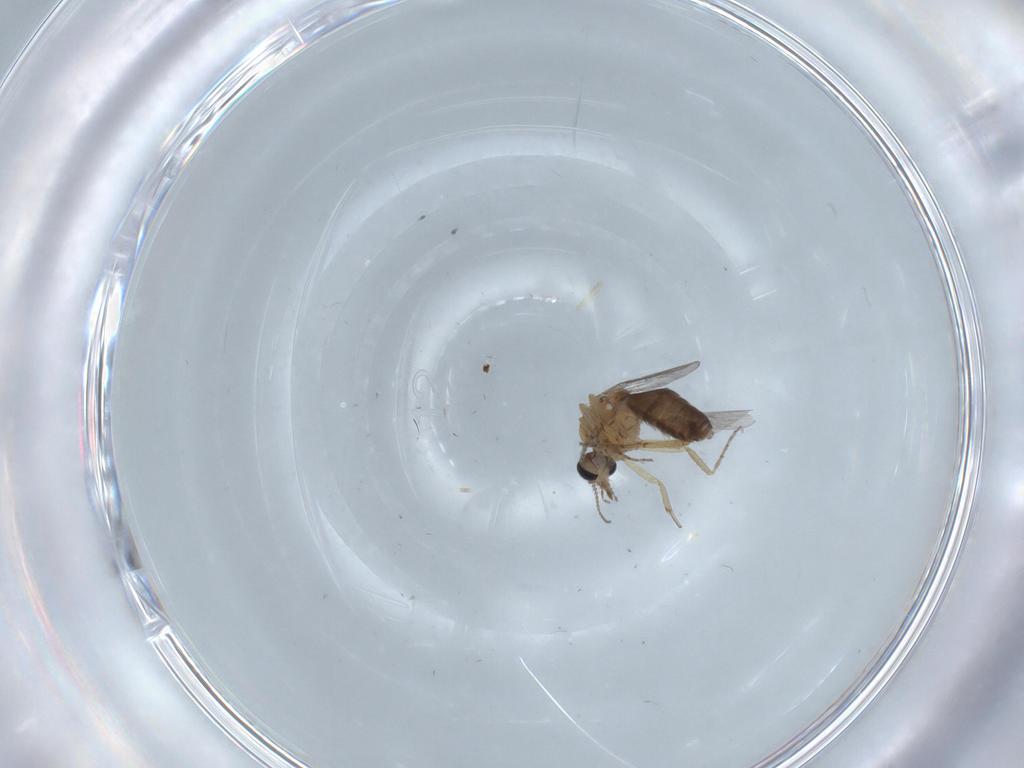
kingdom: Animalia
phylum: Arthropoda
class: Insecta
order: Diptera
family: Ceratopogonidae
